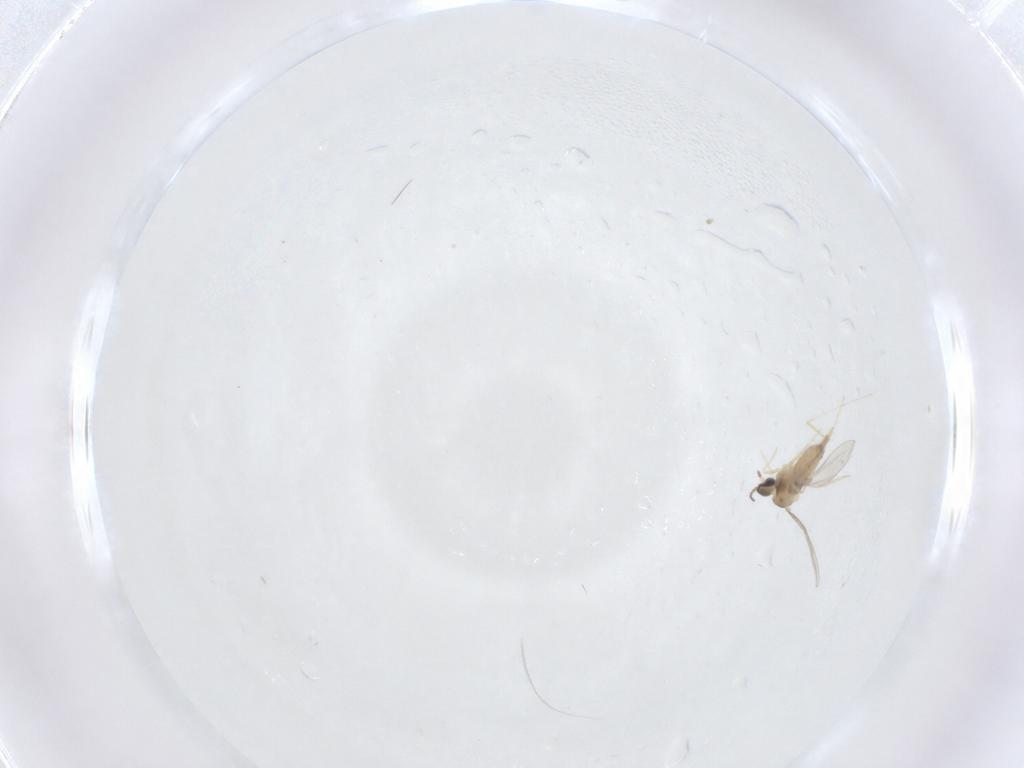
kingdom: Animalia
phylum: Arthropoda
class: Insecta
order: Diptera
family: Cecidomyiidae
